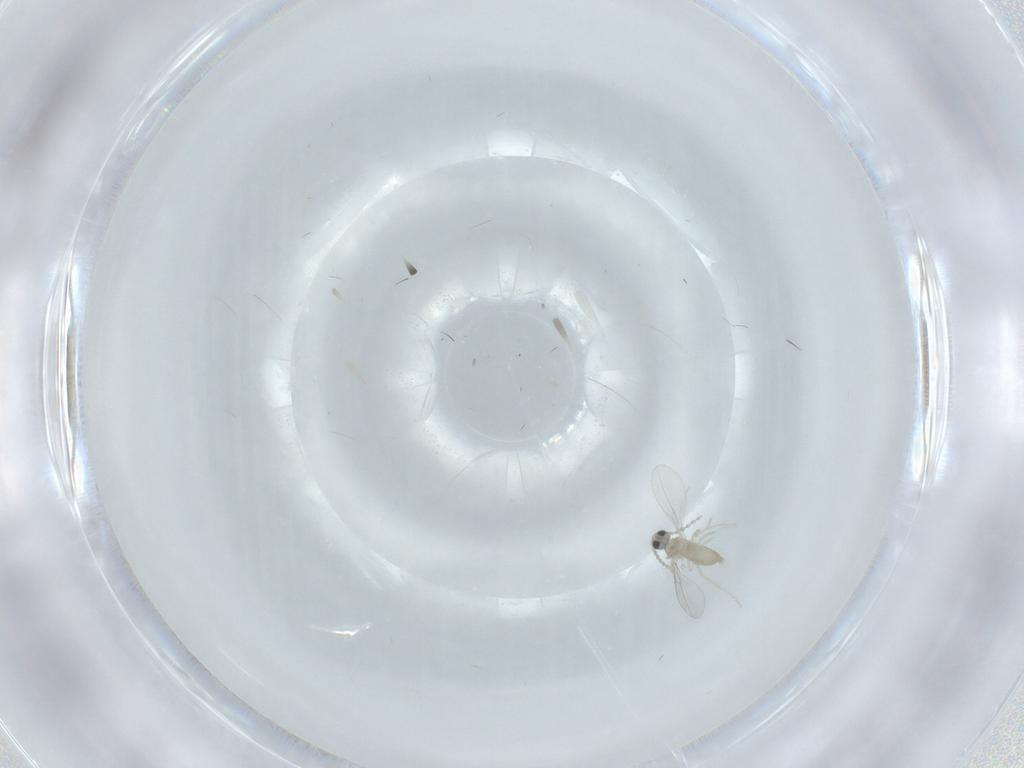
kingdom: Animalia
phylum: Arthropoda
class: Insecta
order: Diptera
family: Cecidomyiidae
